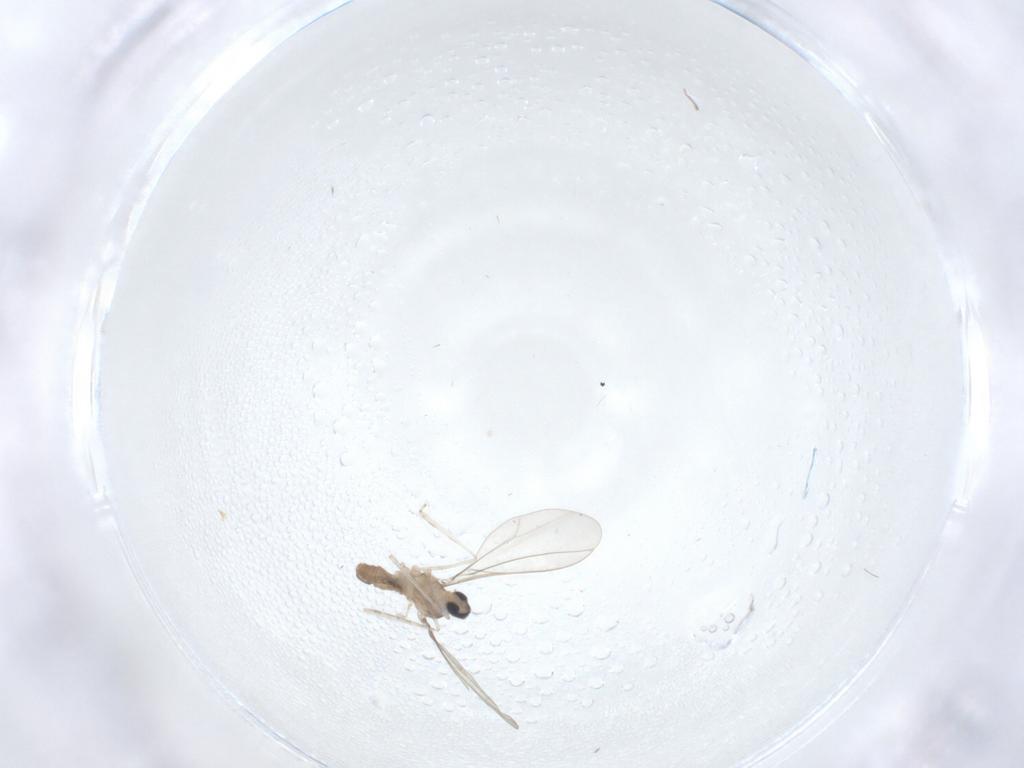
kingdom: Animalia
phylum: Arthropoda
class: Insecta
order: Diptera
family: Cecidomyiidae
